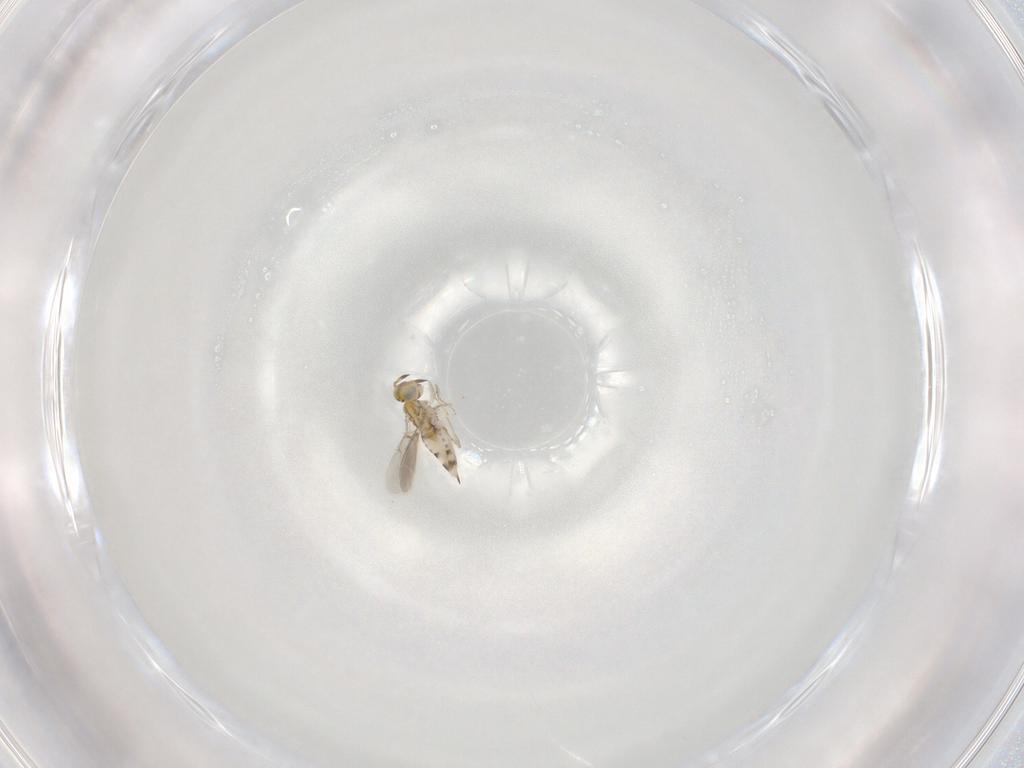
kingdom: Animalia
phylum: Arthropoda
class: Insecta
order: Hymenoptera
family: Aphelinidae
